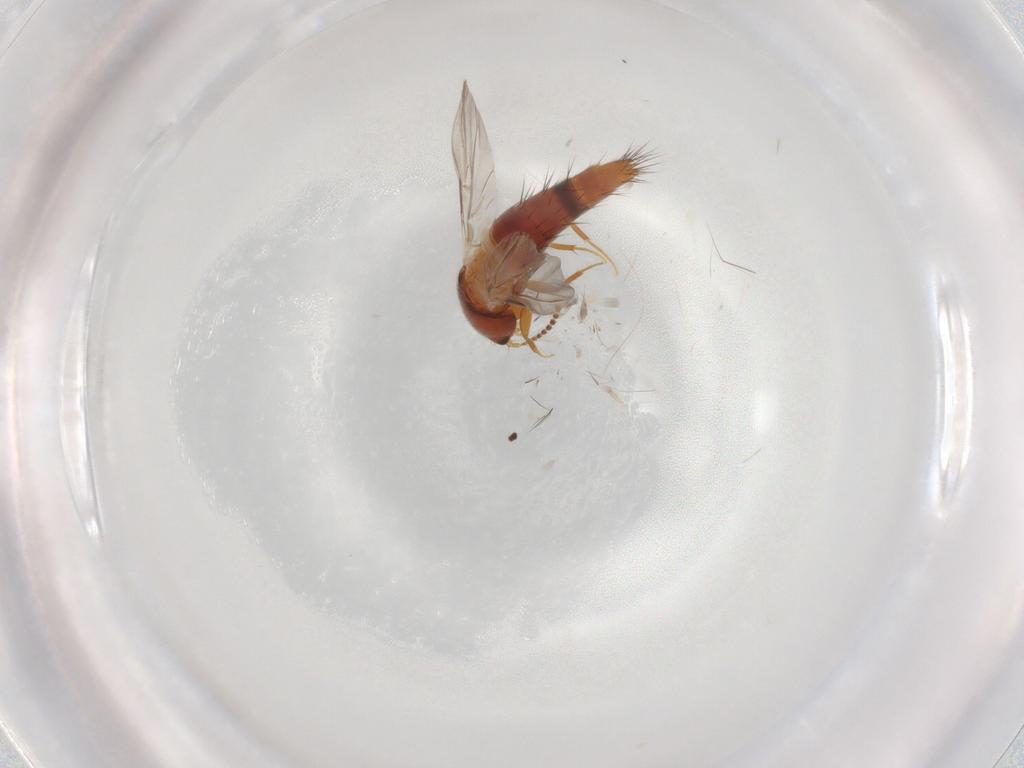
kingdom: Animalia
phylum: Arthropoda
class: Insecta
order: Coleoptera
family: Staphylinidae
